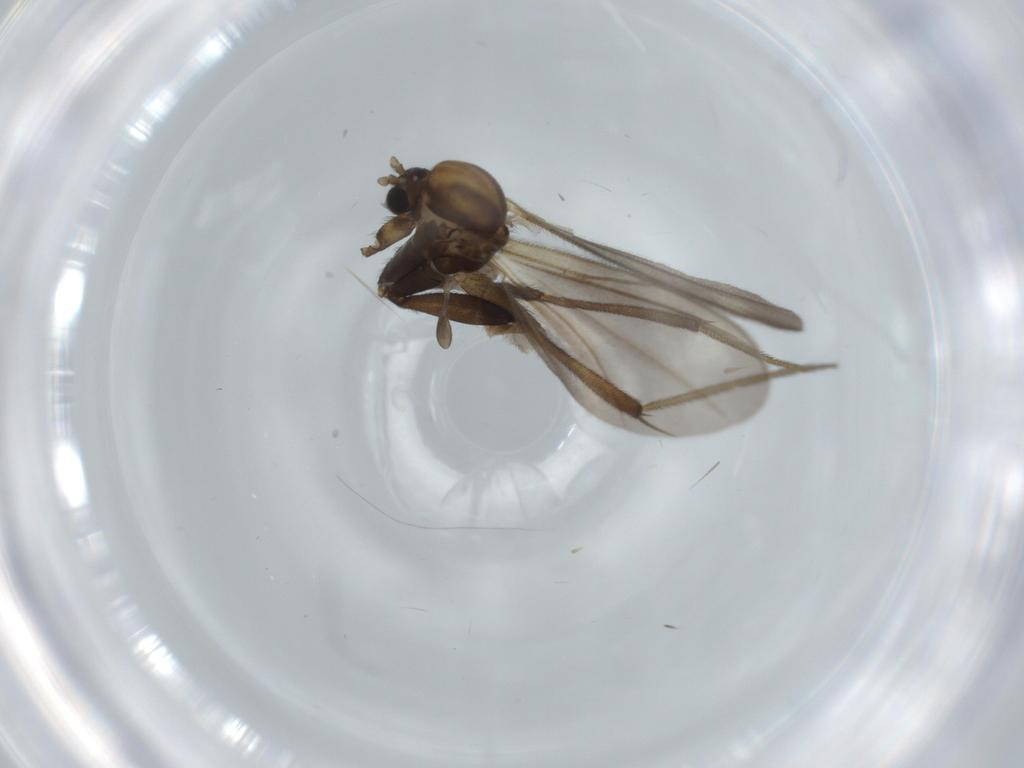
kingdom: Animalia
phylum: Arthropoda
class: Insecta
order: Diptera
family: Mycetophilidae
